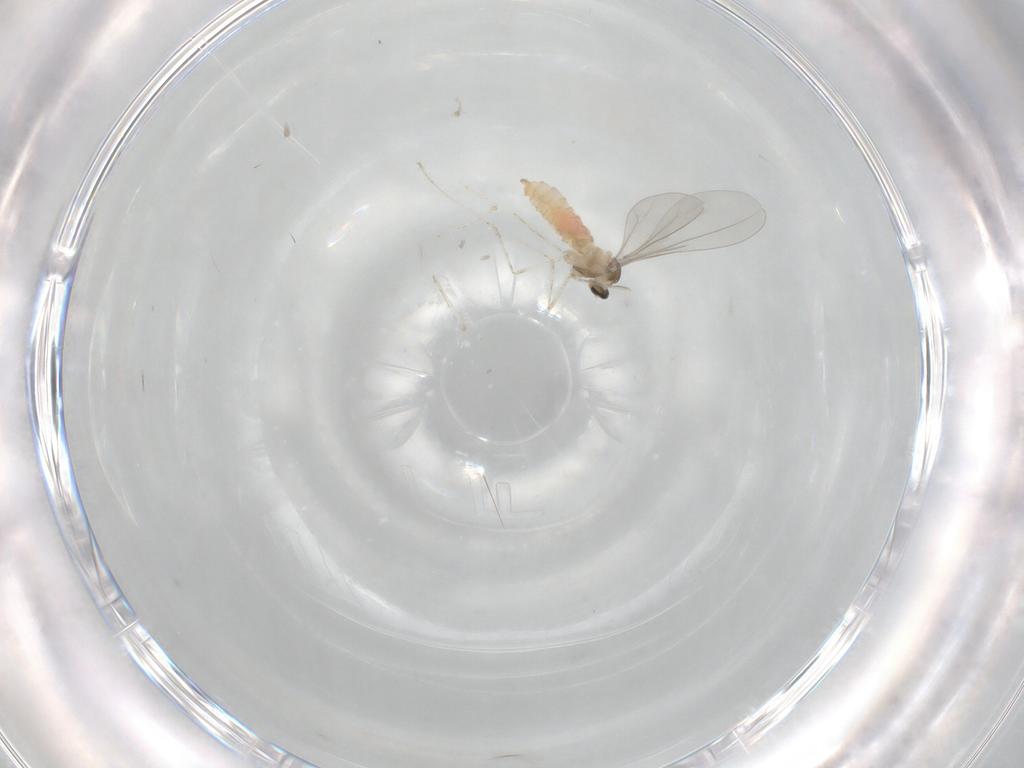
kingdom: Animalia
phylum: Arthropoda
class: Insecta
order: Diptera
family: Cecidomyiidae
